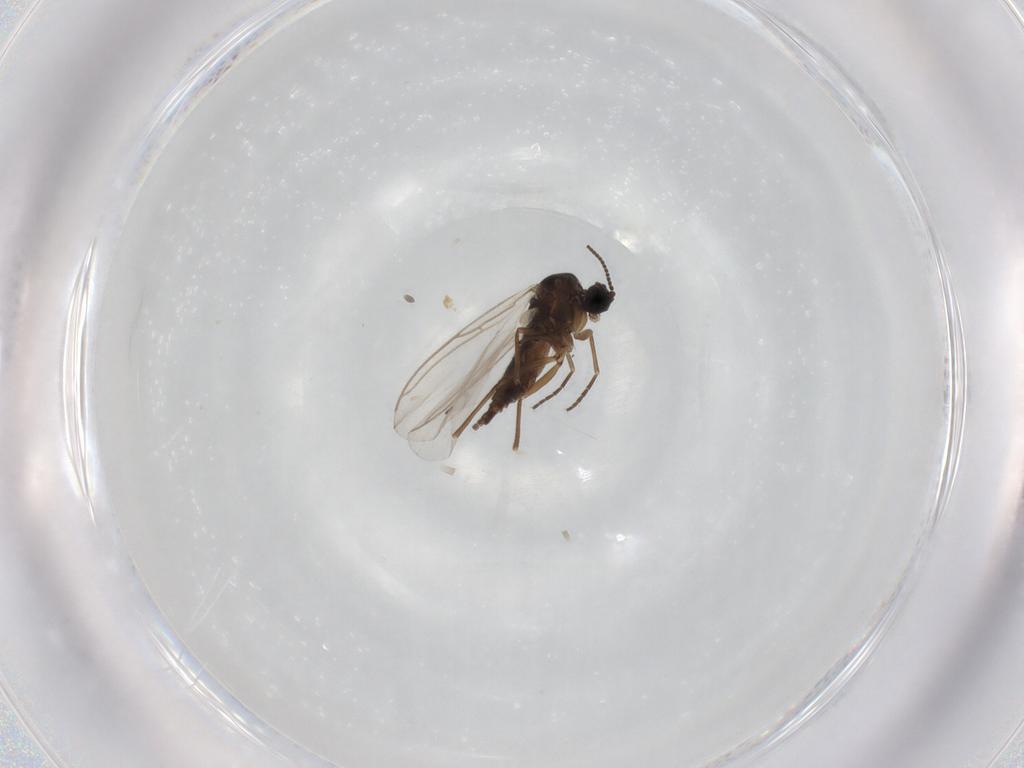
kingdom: Animalia
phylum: Arthropoda
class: Insecta
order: Diptera
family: Sciaridae
